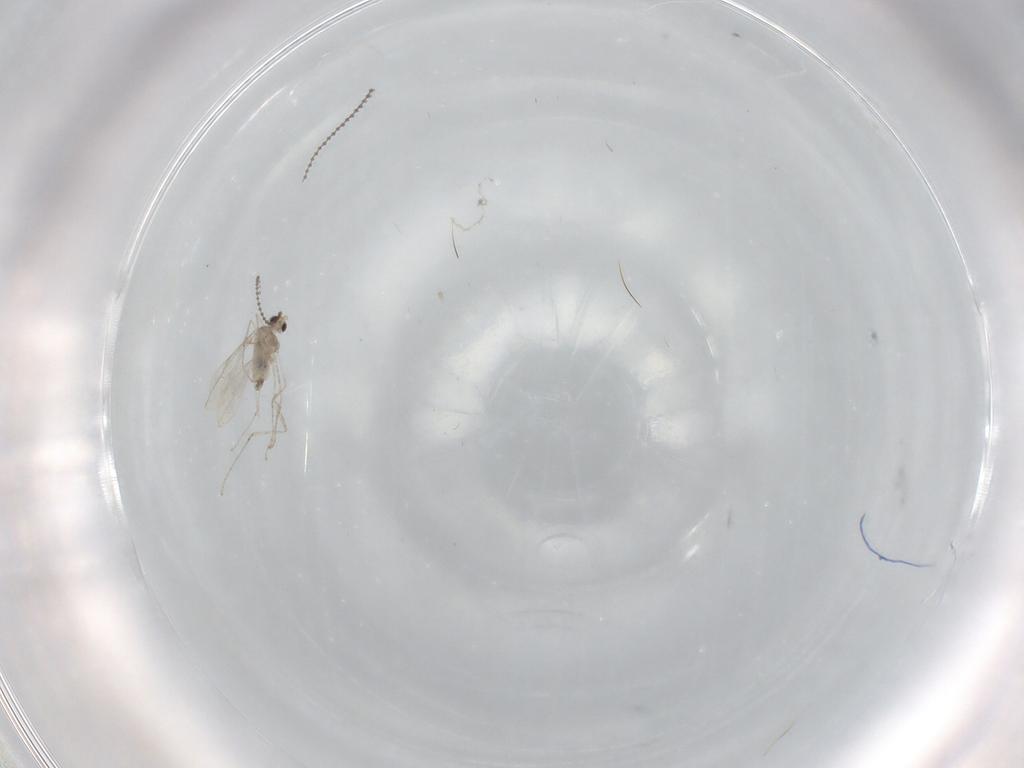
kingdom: Animalia
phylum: Arthropoda
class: Insecta
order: Diptera
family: Cecidomyiidae
